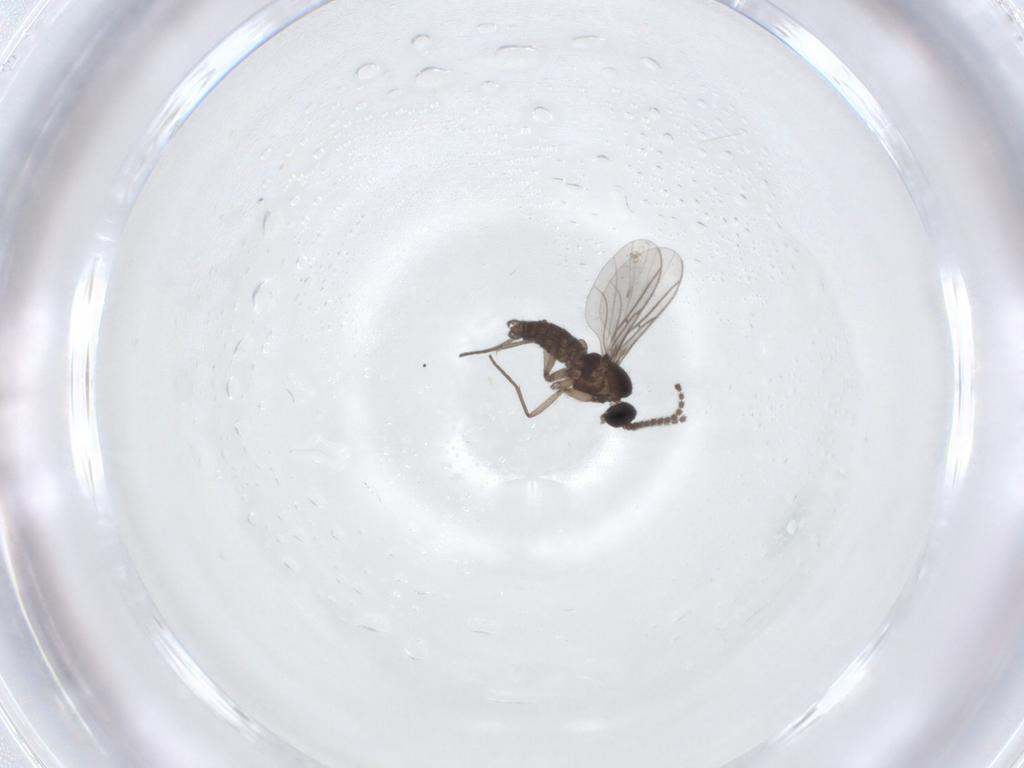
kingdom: Animalia
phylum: Arthropoda
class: Insecta
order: Diptera
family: Sciaridae
